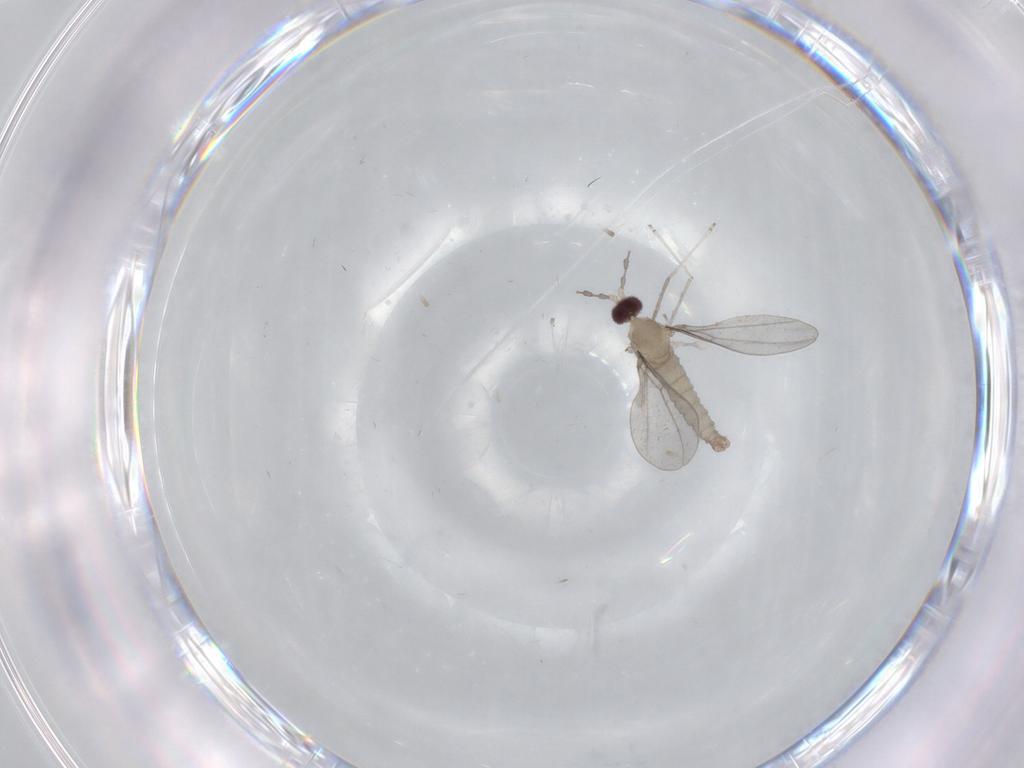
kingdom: Animalia
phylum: Arthropoda
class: Insecta
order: Diptera
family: Cecidomyiidae
